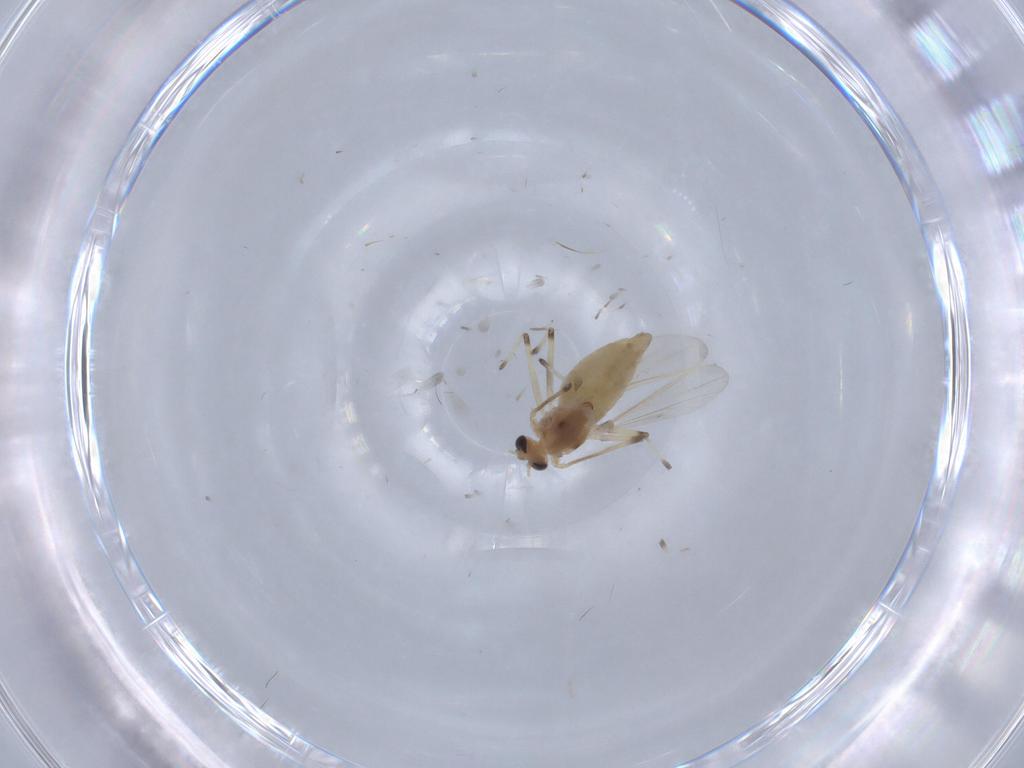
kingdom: Animalia
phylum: Arthropoda
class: Insecta
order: Diptera
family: Chironomidae
